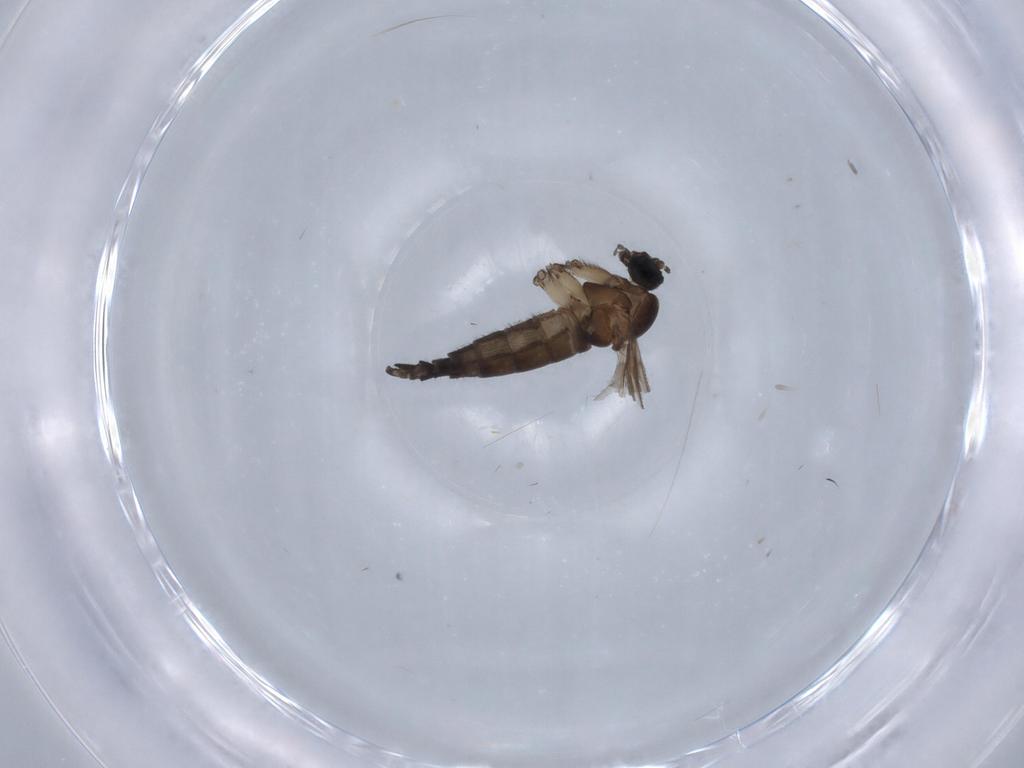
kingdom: Animalia
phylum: Arthropoda
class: Insecta
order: Diptera
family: Sciaridae
